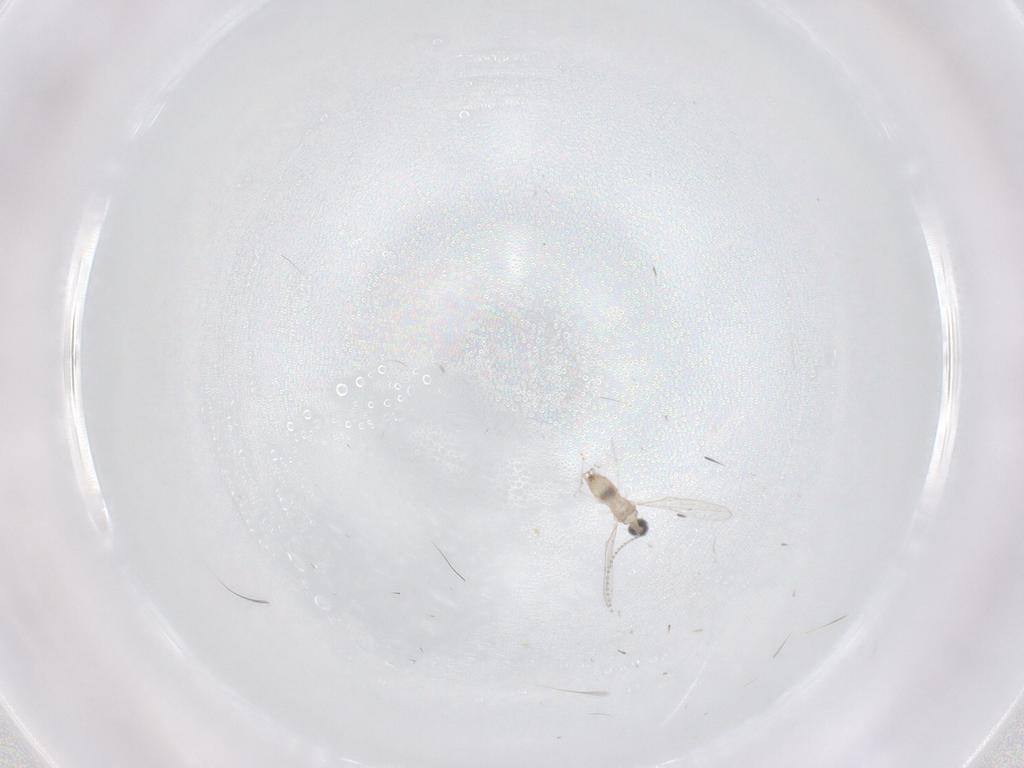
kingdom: Animalia
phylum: Arthropoda
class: Insecta
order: Diptera
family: Cecidomyiidae
